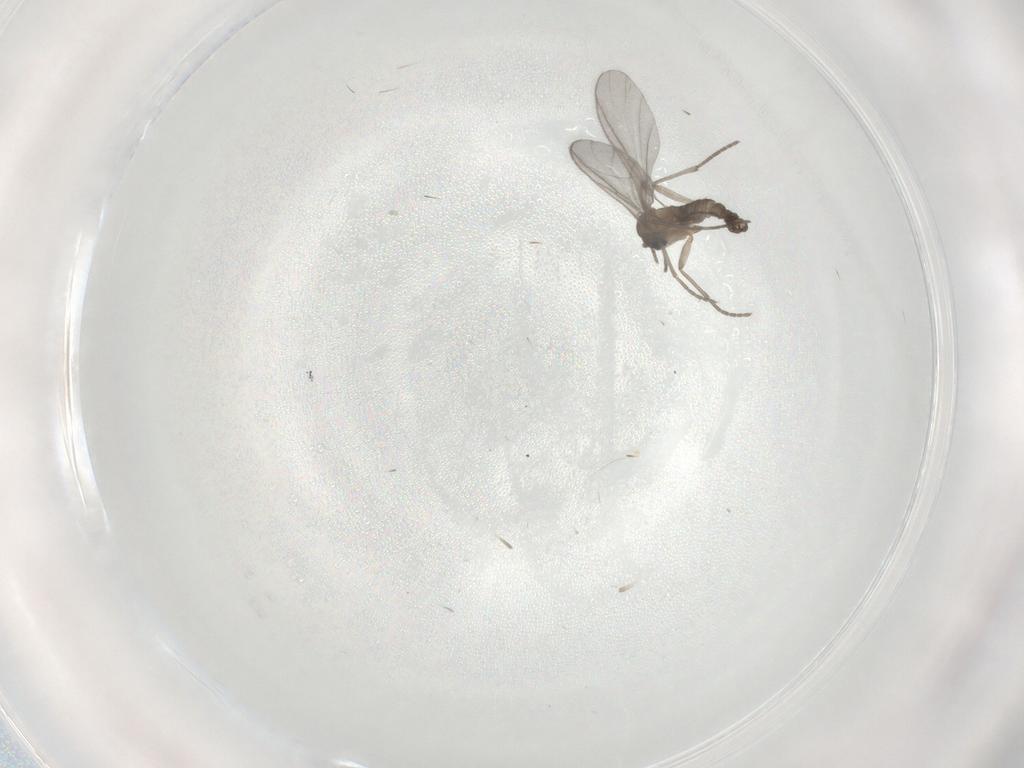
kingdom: Animalia
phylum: Arthropoda
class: Insecta
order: Diptera
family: Sciaridae
